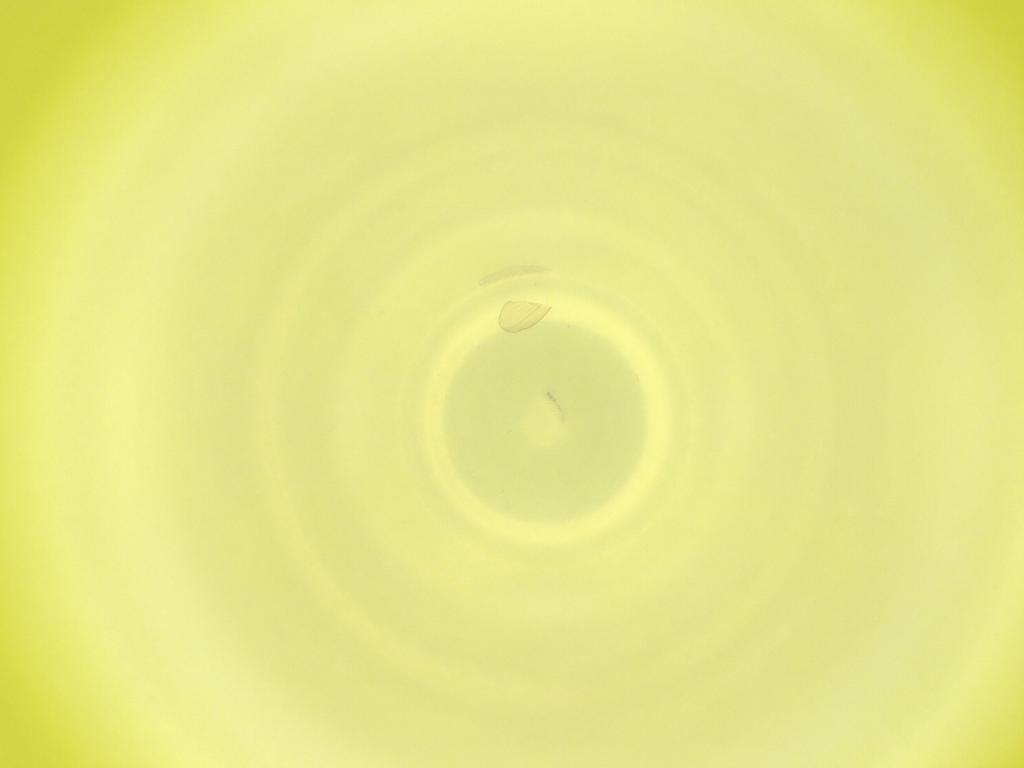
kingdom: Animalia
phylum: Arthropoda
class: Insecta
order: Diptera
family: Cecidomyiidae
